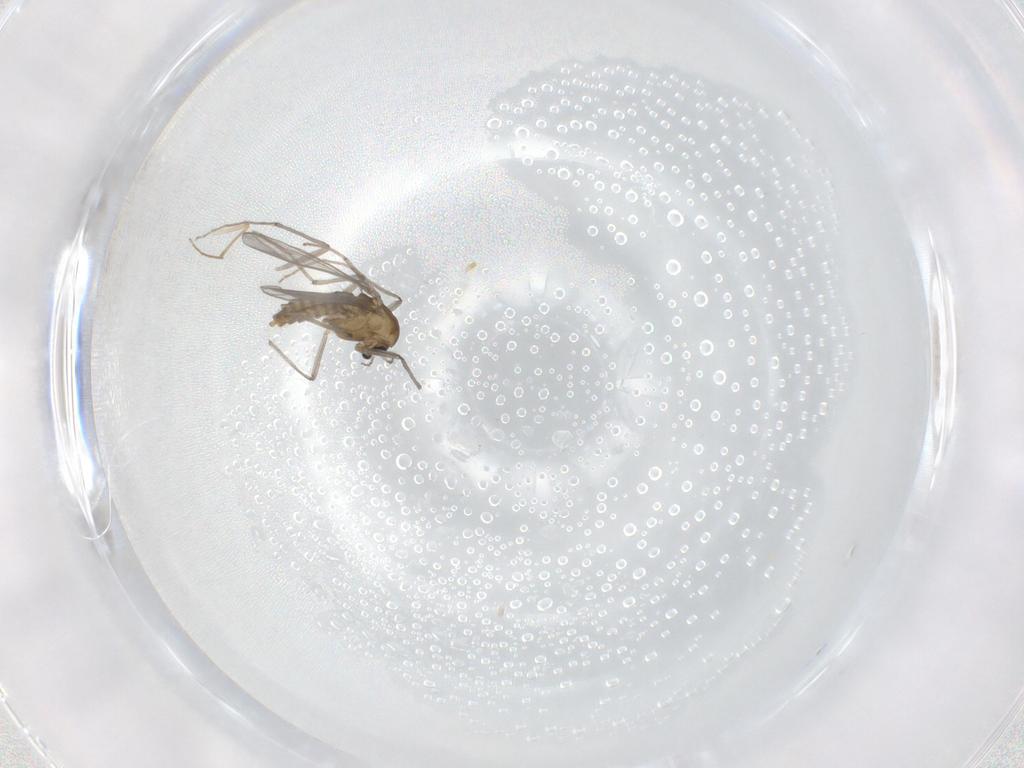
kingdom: Animalia
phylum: Arthropoda
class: Insecta
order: Diptera
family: Chironomidae
